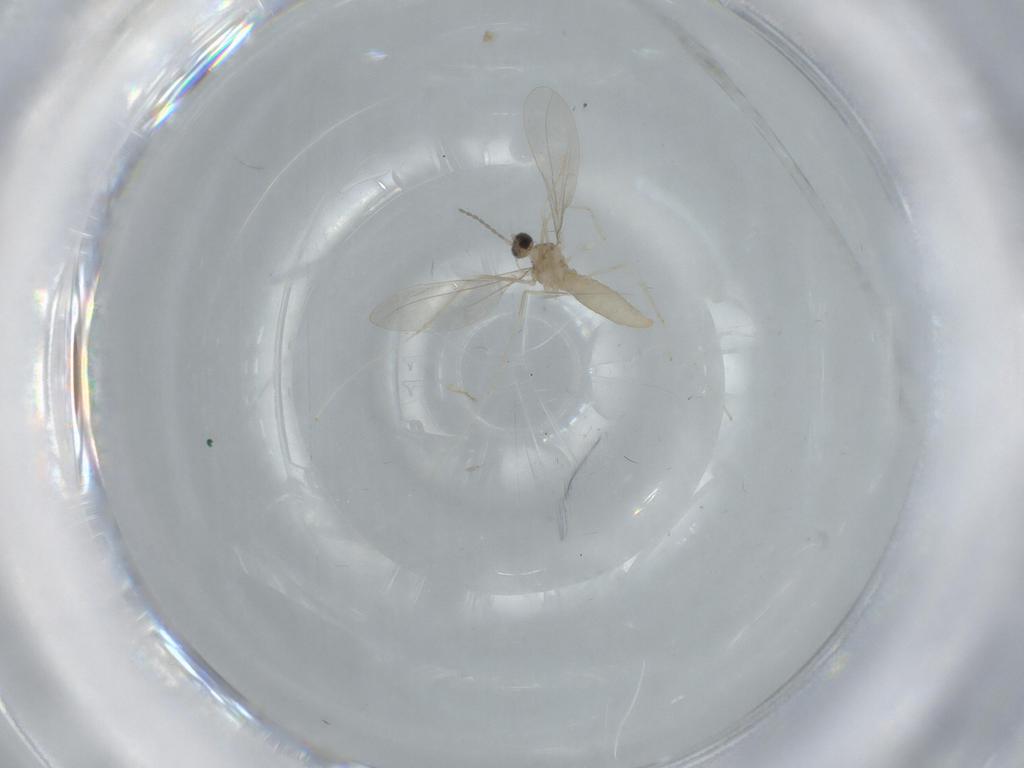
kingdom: Animalia
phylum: Arthropoda
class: Insecta
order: Diptera
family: Cecidomyiidae
